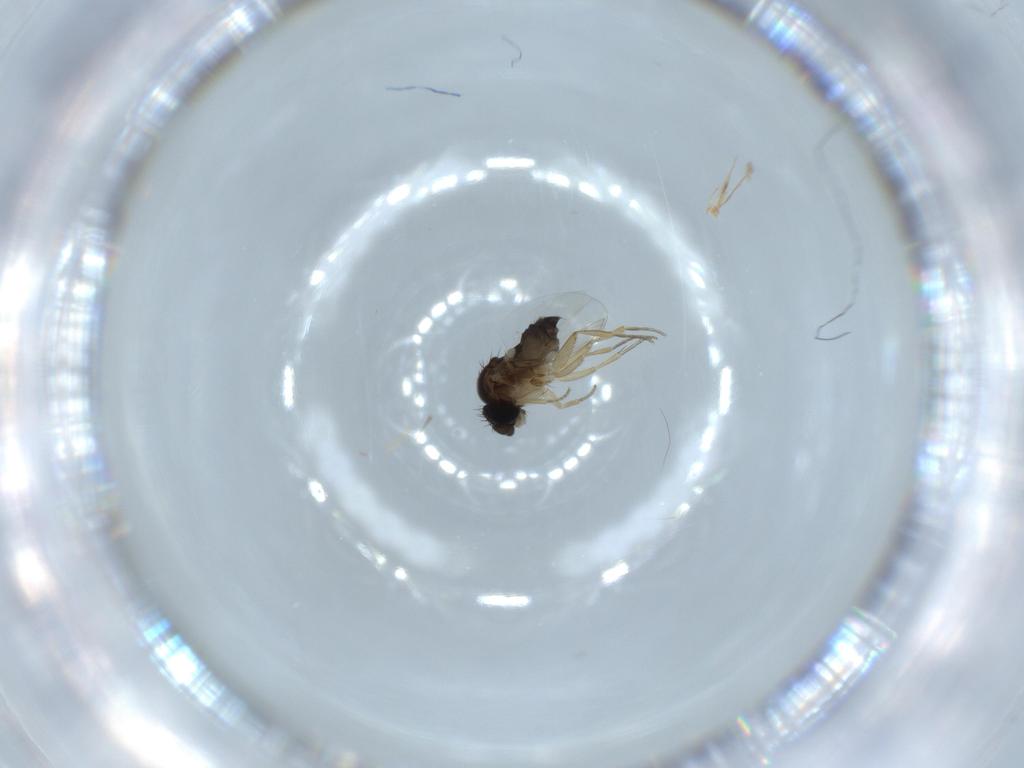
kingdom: Animalia
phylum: Arthropoda
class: Insecta
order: Diptera
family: Phoridae
